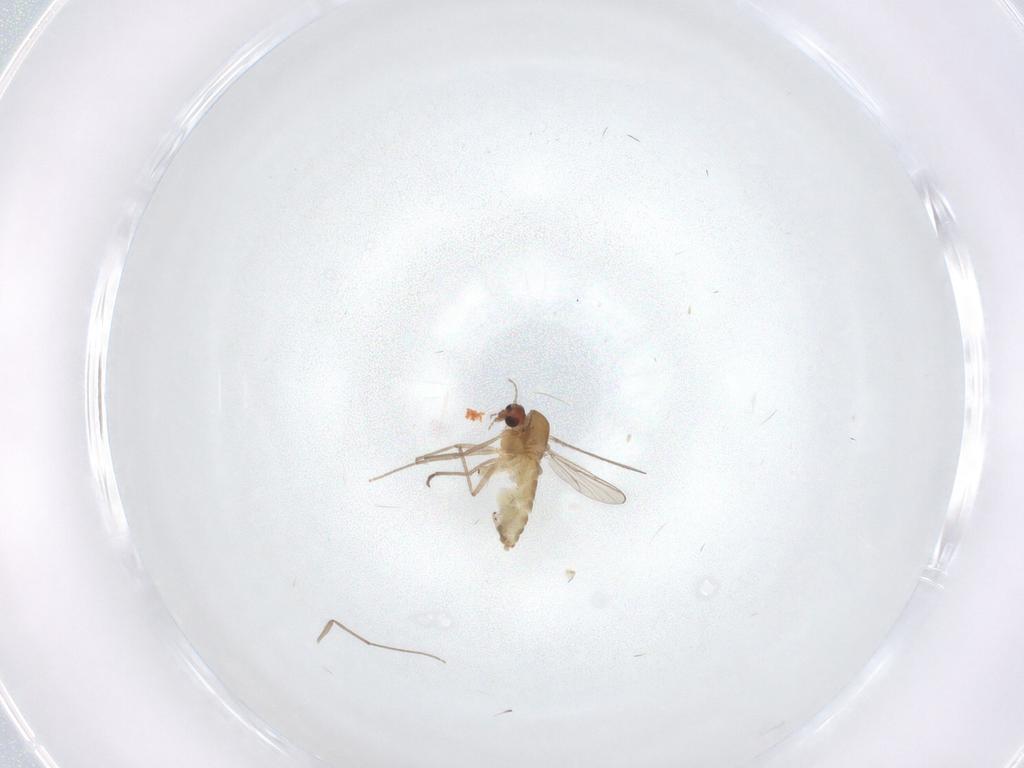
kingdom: Animalia
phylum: Arthropoda
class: Insecta
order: Diptera
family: Chironomidae
